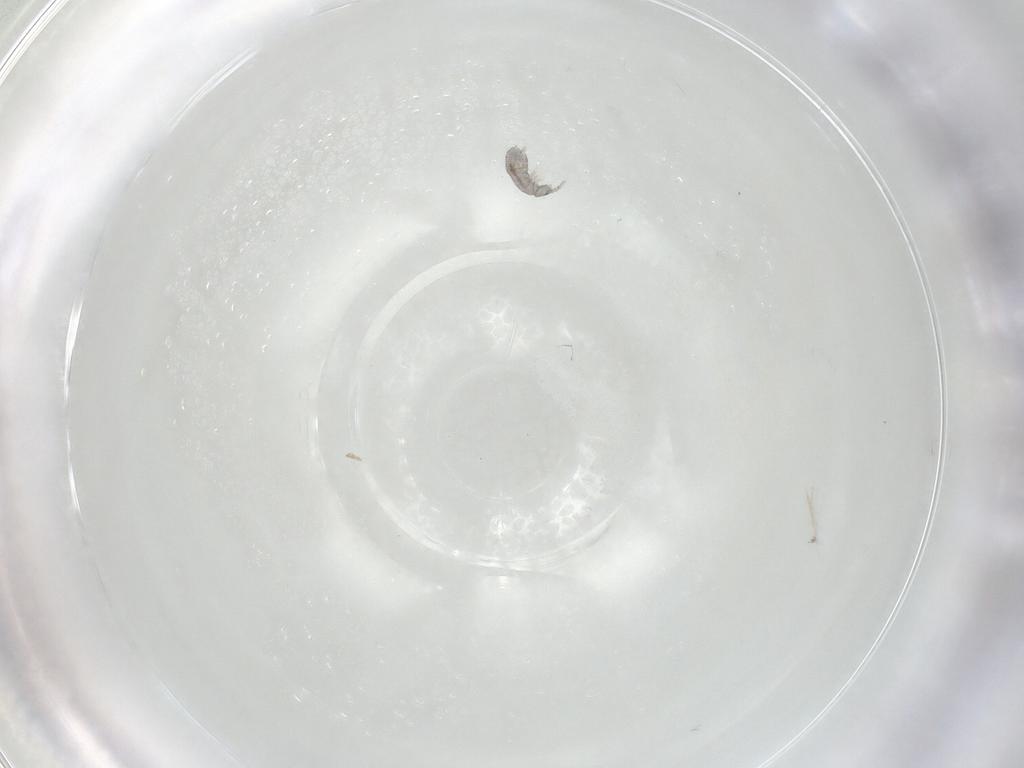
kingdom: Animalia
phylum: Arthropoda
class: Collembola
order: Entomobryomorpha
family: Isotomidae
